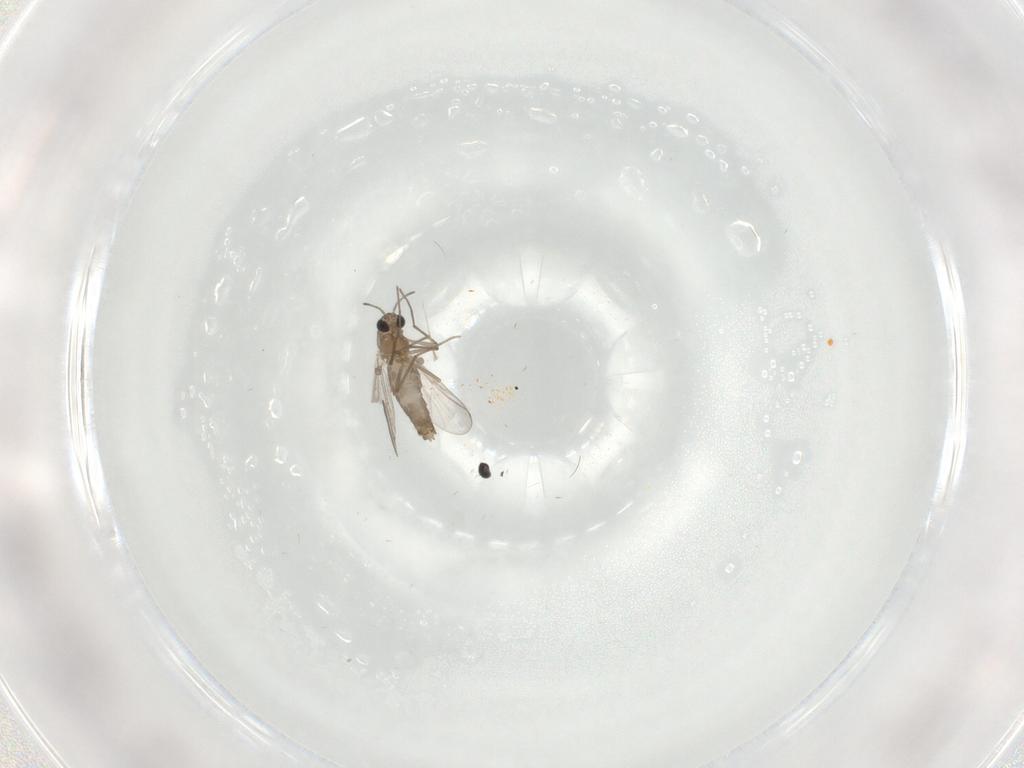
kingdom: Animalia
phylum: Arthropoda
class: Insecta
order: Diptera
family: Chironomidae
